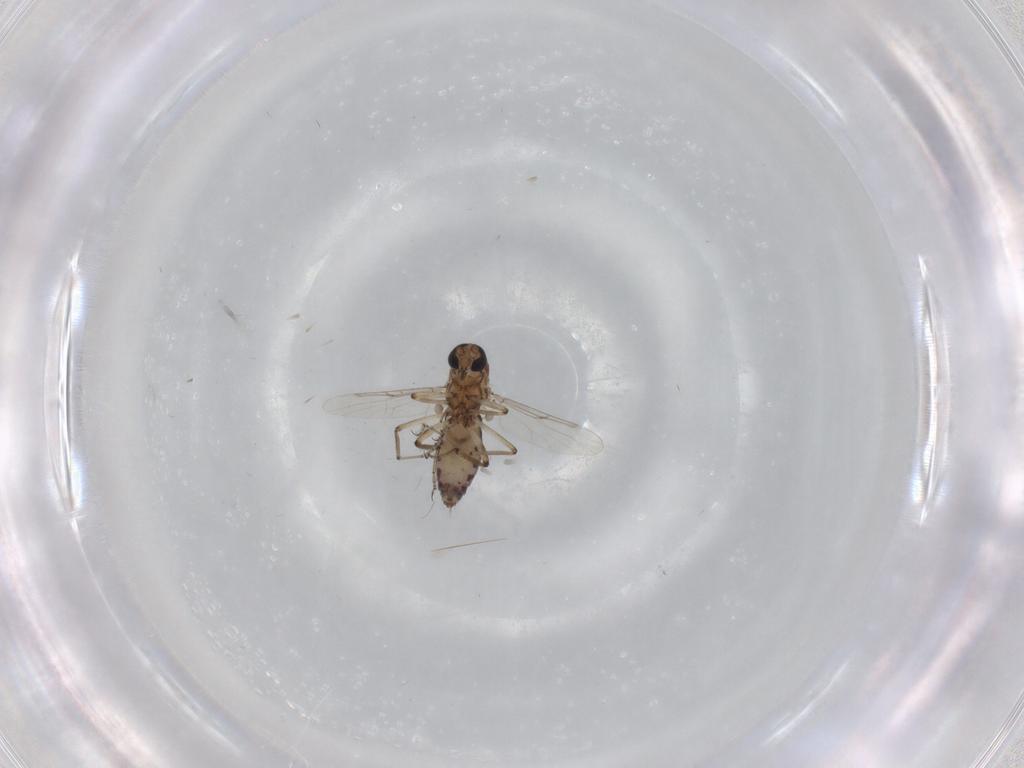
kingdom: Animalia
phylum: Arthropoda
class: Insecta
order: Diptera
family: Ceratopogonidae
